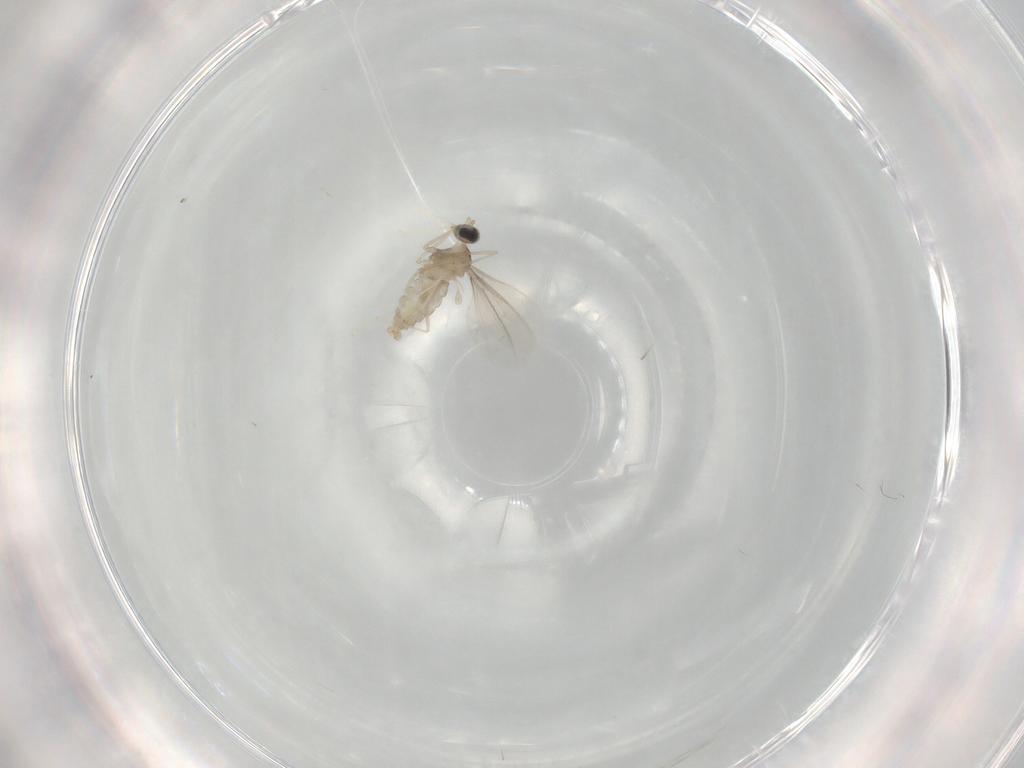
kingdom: Animalia
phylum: Arthropoda
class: Insecta
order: Diptera
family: Cecidomyiidae
